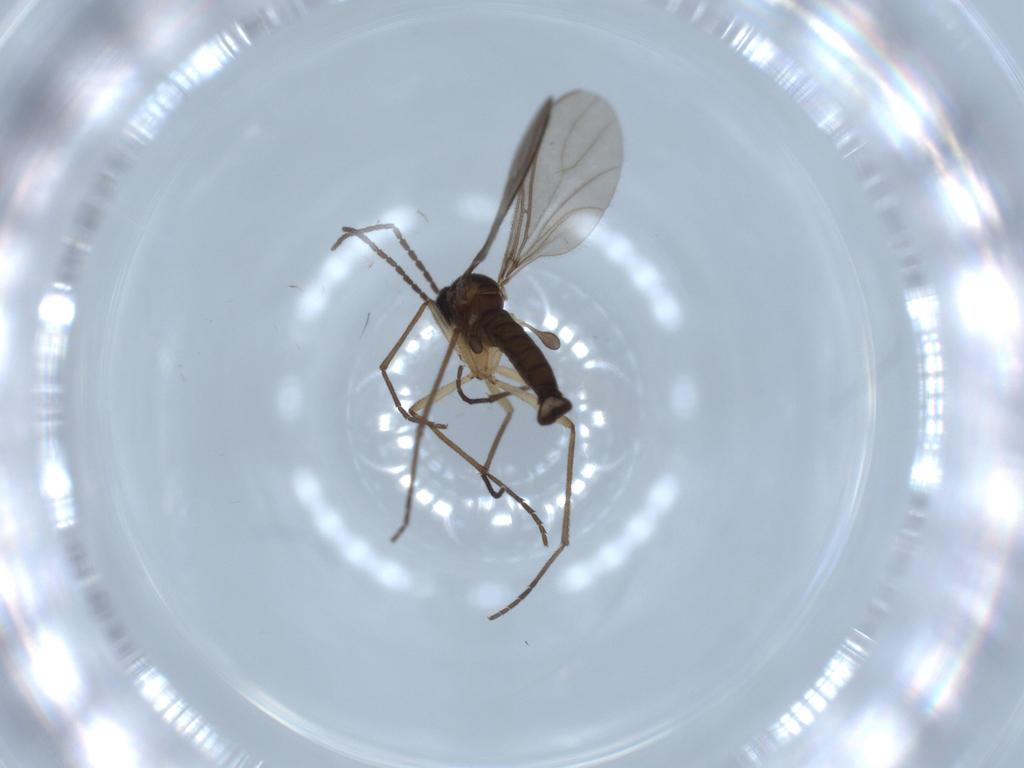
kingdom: Animalia
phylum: Arthropoda
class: Insecta
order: Diptera
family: Sciaridae
